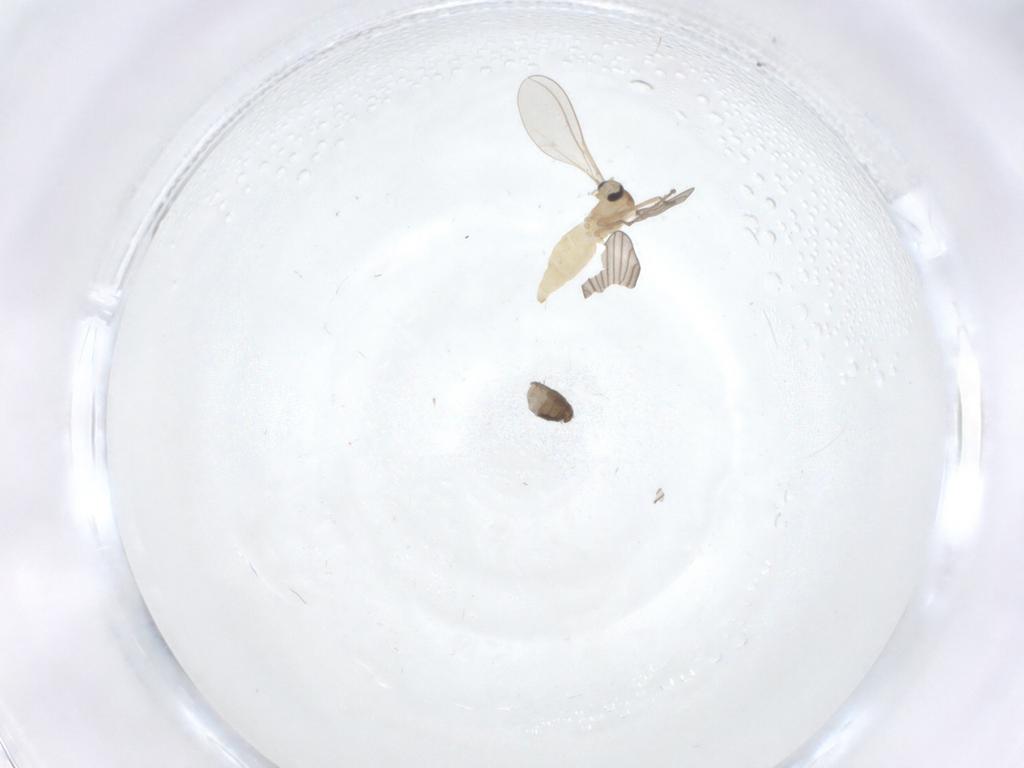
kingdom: Animalia
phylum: Arthropoda
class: Insecta
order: Diptera
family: Cecidomyiidae
